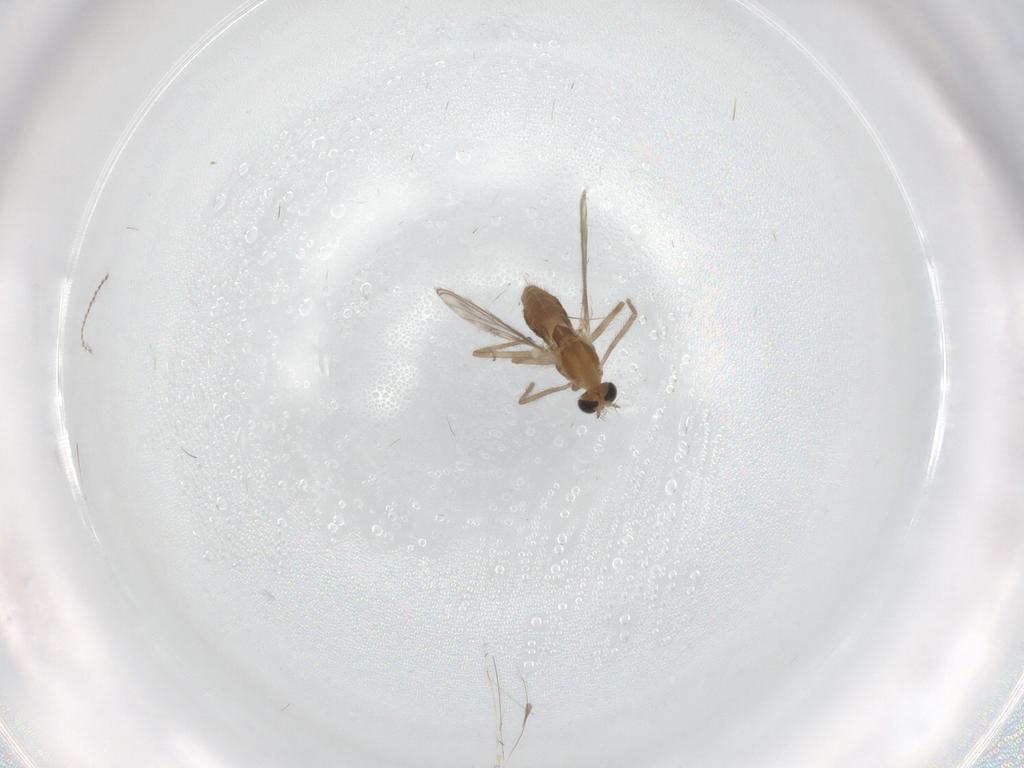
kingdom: Animalia
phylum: Arthropoda
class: Insecta
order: Diptera
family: Chironomidae
